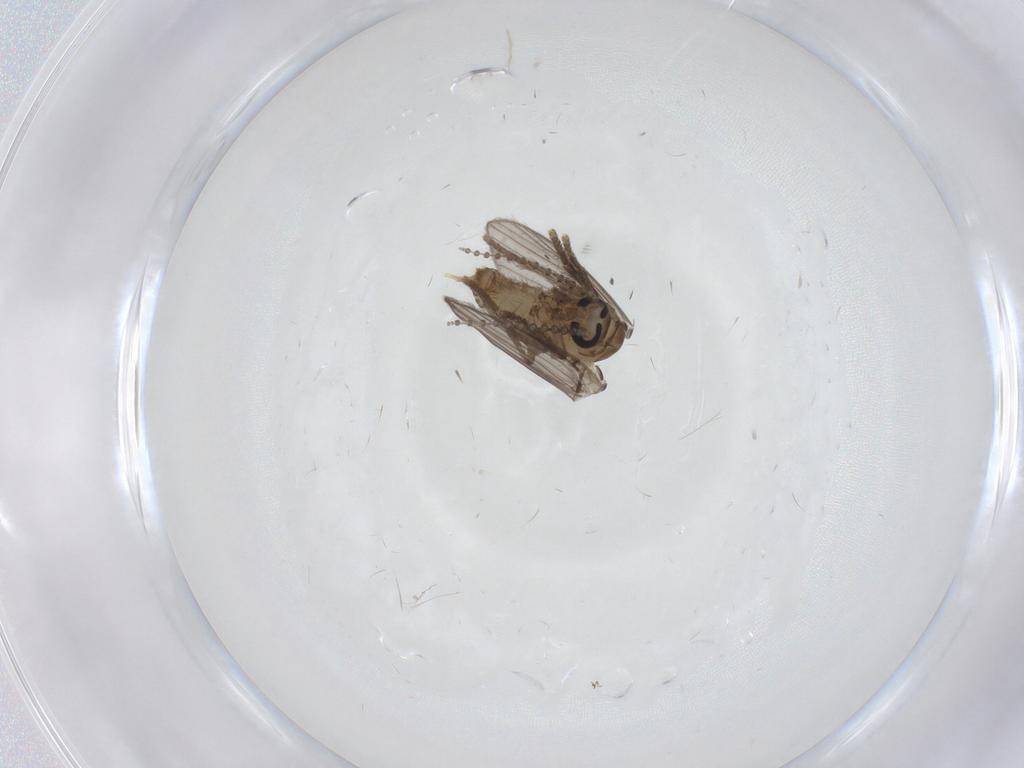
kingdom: Animalia
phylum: Arthropoda
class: Insecta
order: Diptera
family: Psychodidae
